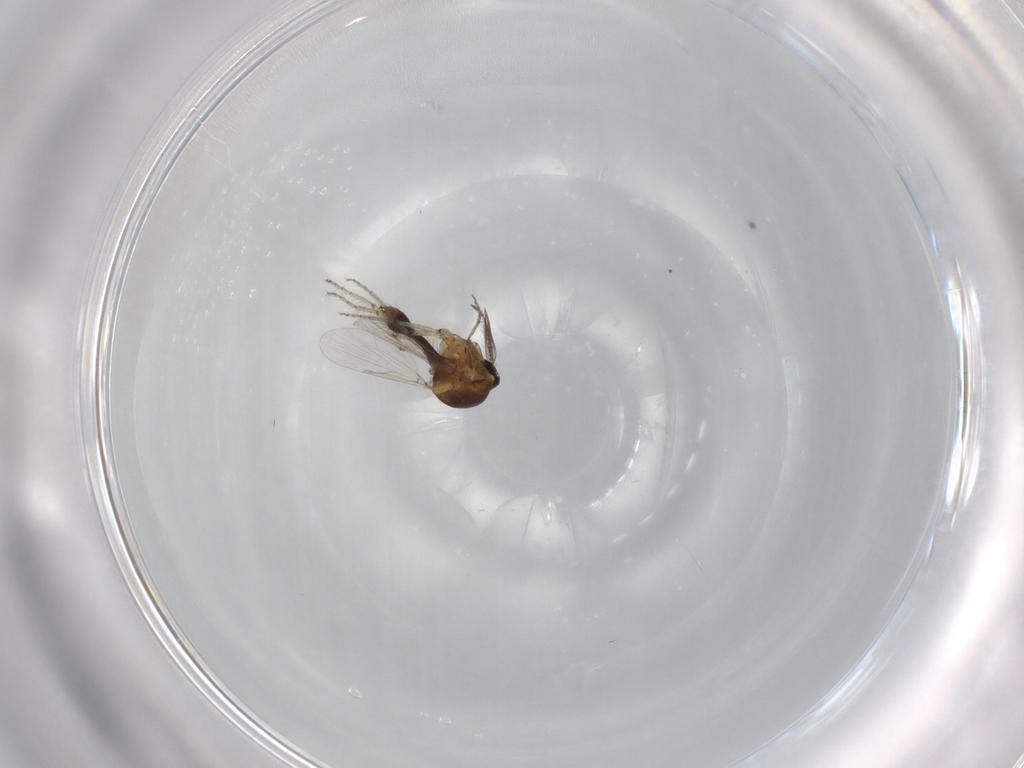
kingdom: Animalia
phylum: Arthropoda
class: Insecta
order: Diptera
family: Ceratopogonidae
